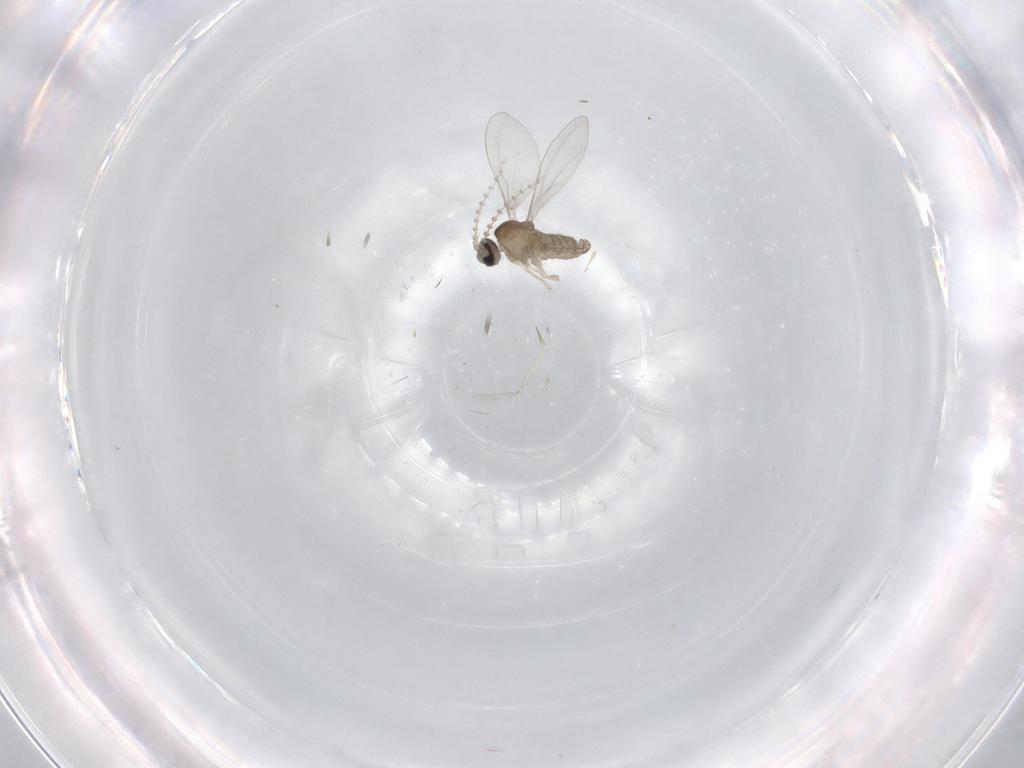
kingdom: Animalia
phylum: Arthropoda
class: Insecta
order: Diptera
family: Cecidomyiidae
